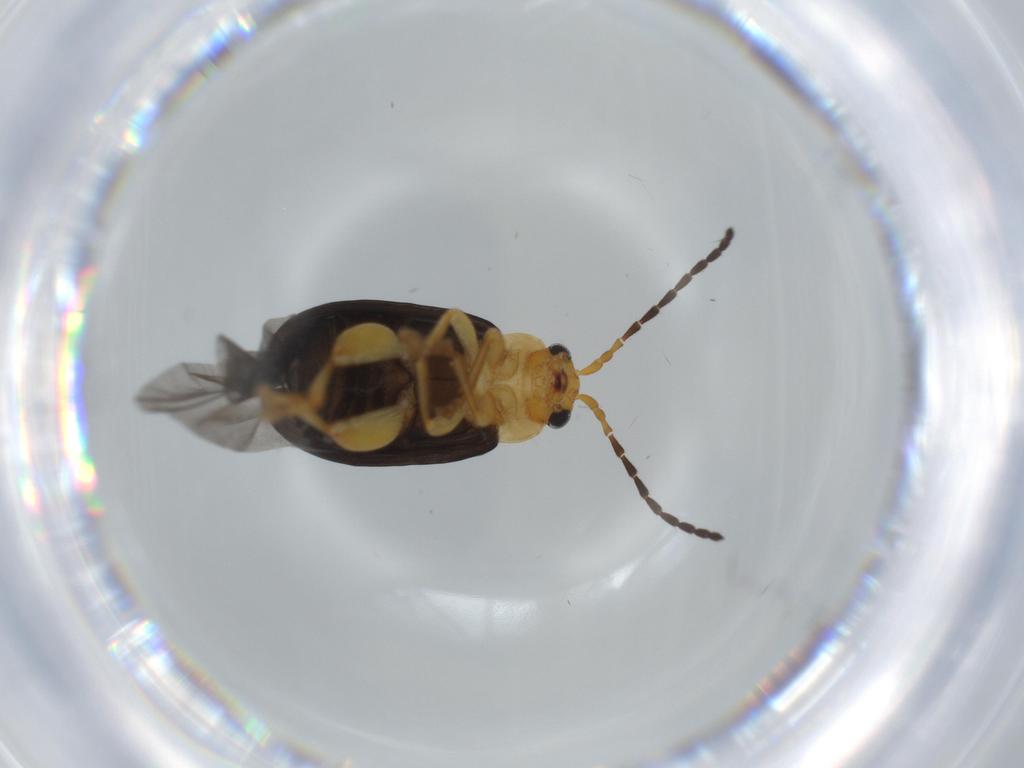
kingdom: Animalia
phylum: Arthropoda
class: Insecta
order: Coleoptera
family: Chrysomelidae
